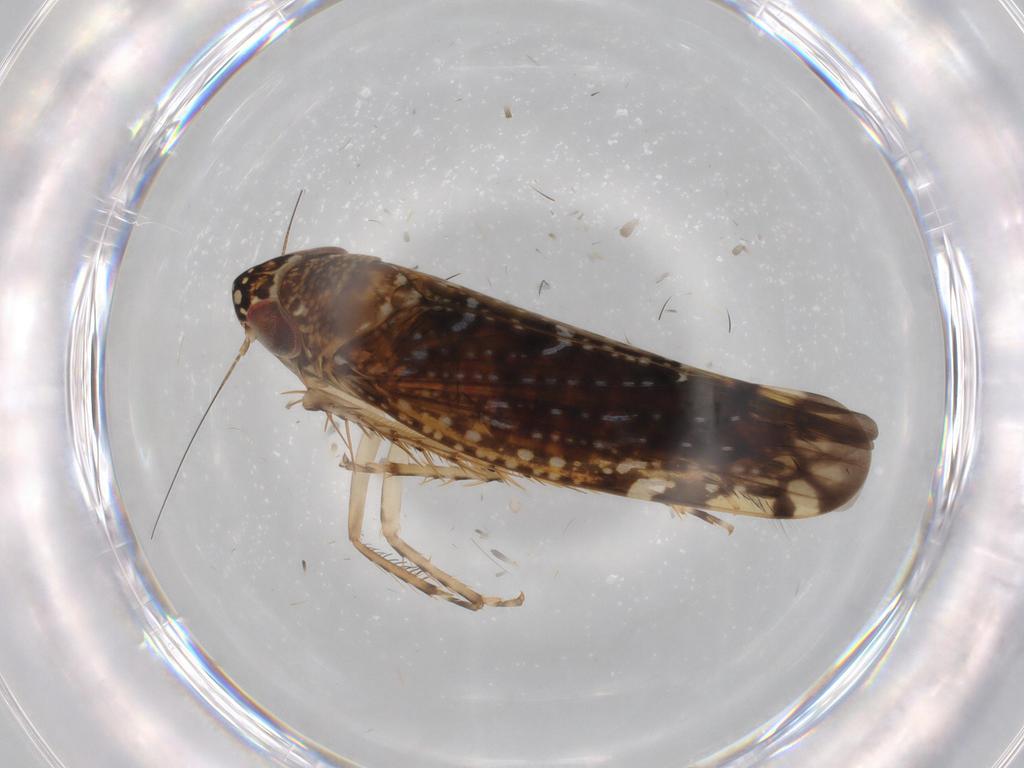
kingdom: Animalia
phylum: Arthropoda
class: Insecta
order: Hemiptera
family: Cicadellidae
